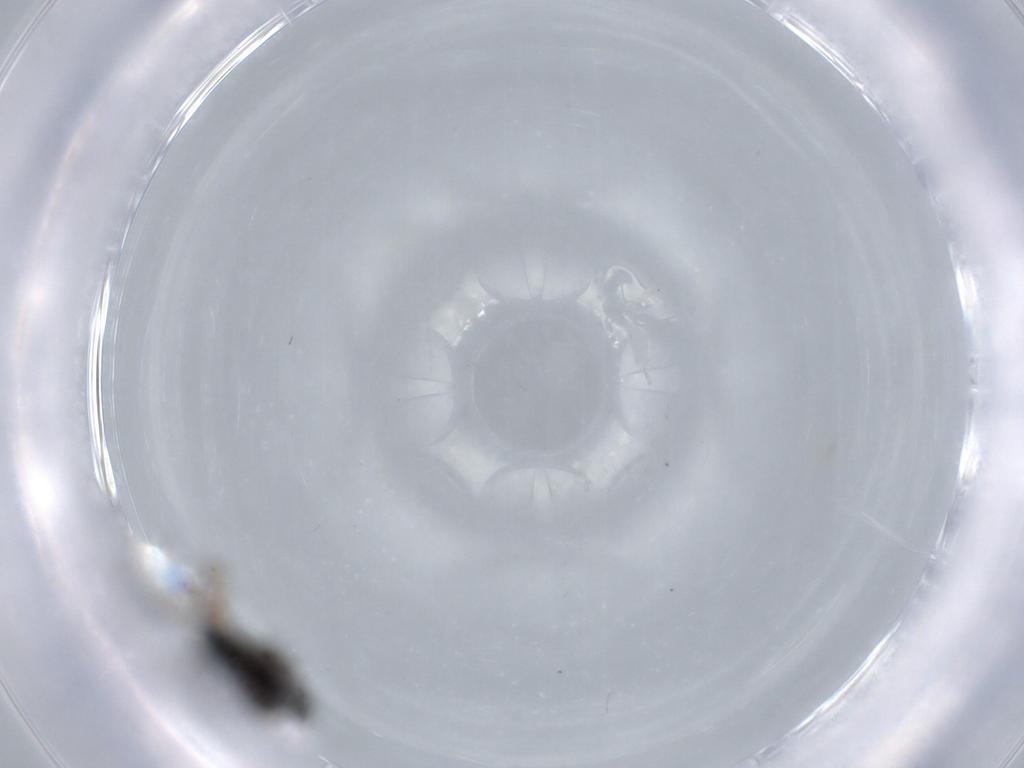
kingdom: Animalia
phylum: Arthropoda
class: Insecta
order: Diptera
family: Sciaridae
